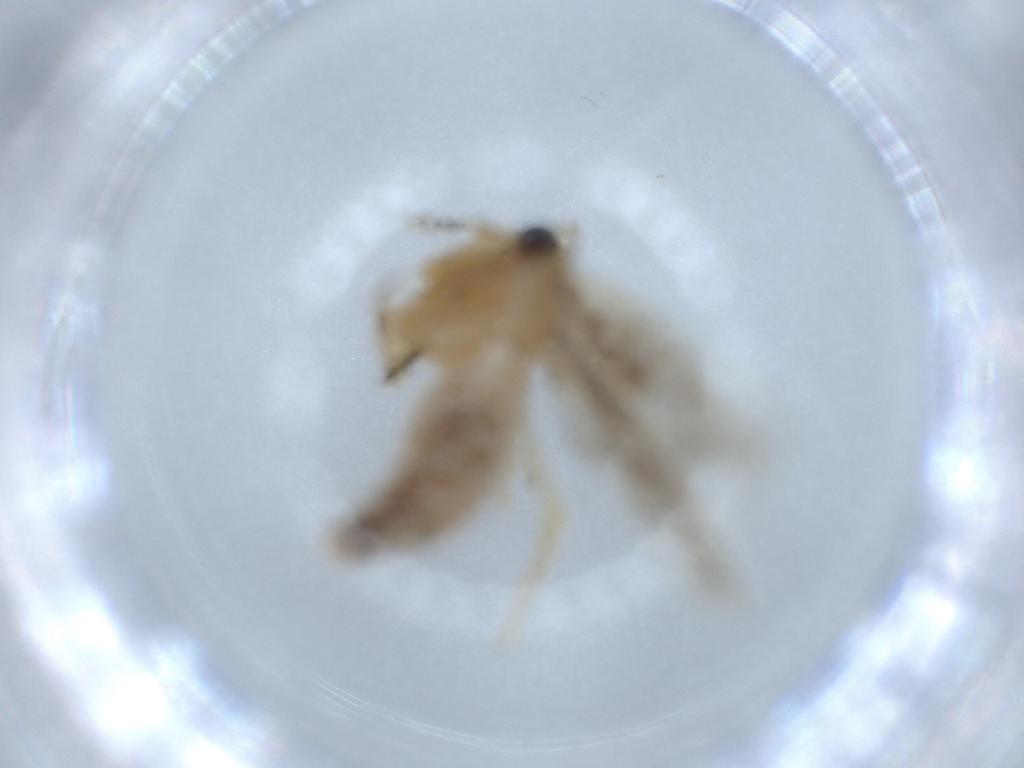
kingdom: Animalia
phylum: Arthropoda
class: Insecta
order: Lepidoptera
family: Tineidae
